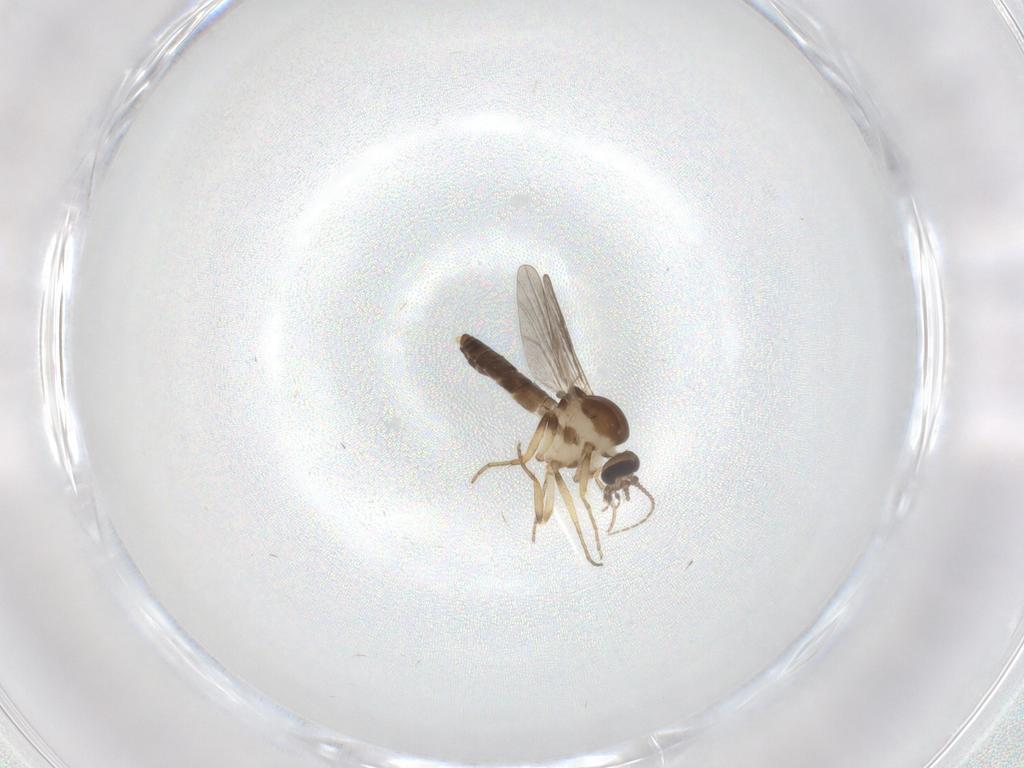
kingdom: Animalia
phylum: Arthropoda
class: Insecta
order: Diptera
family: Ceratopogonidae
